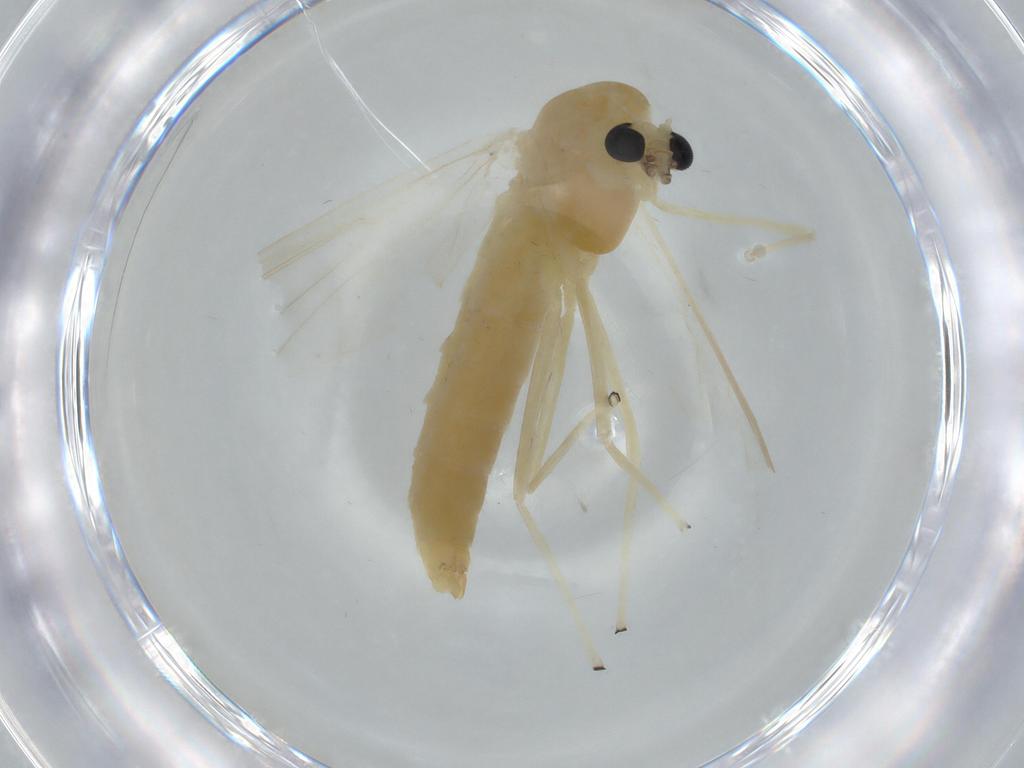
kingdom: Animalia
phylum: Arthropoda
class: Insecta
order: Diptera
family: Chironomidae
